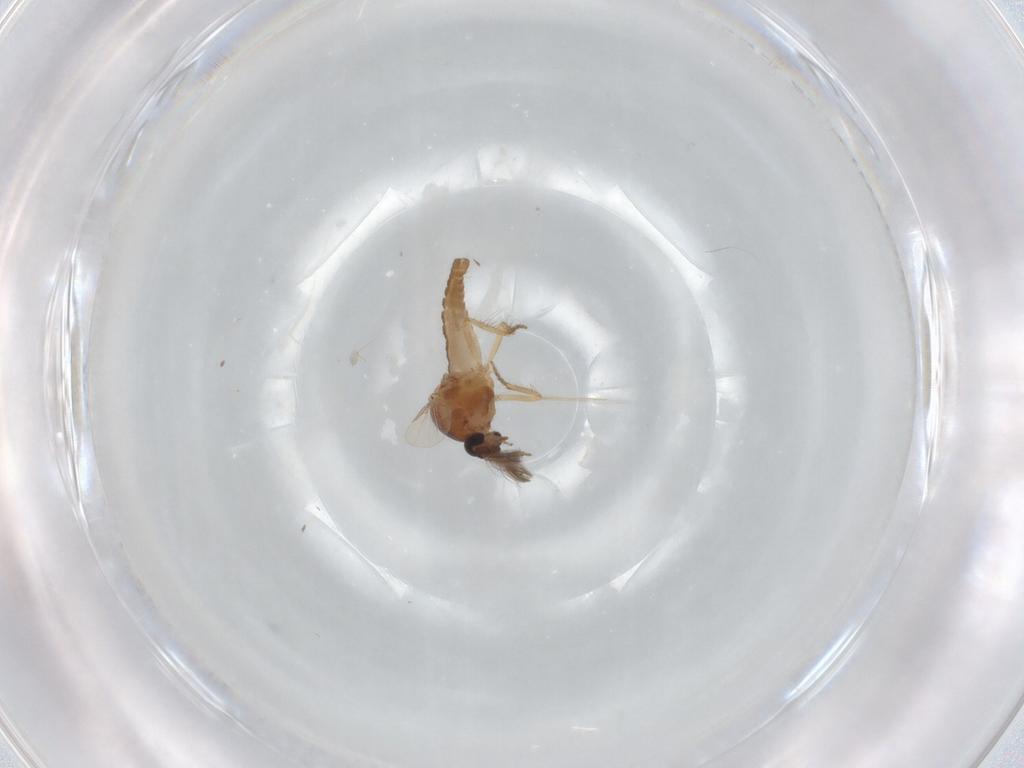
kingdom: Animalia
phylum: Arthropoda
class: Insecta
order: Diptera
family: Ceratopogonidae
